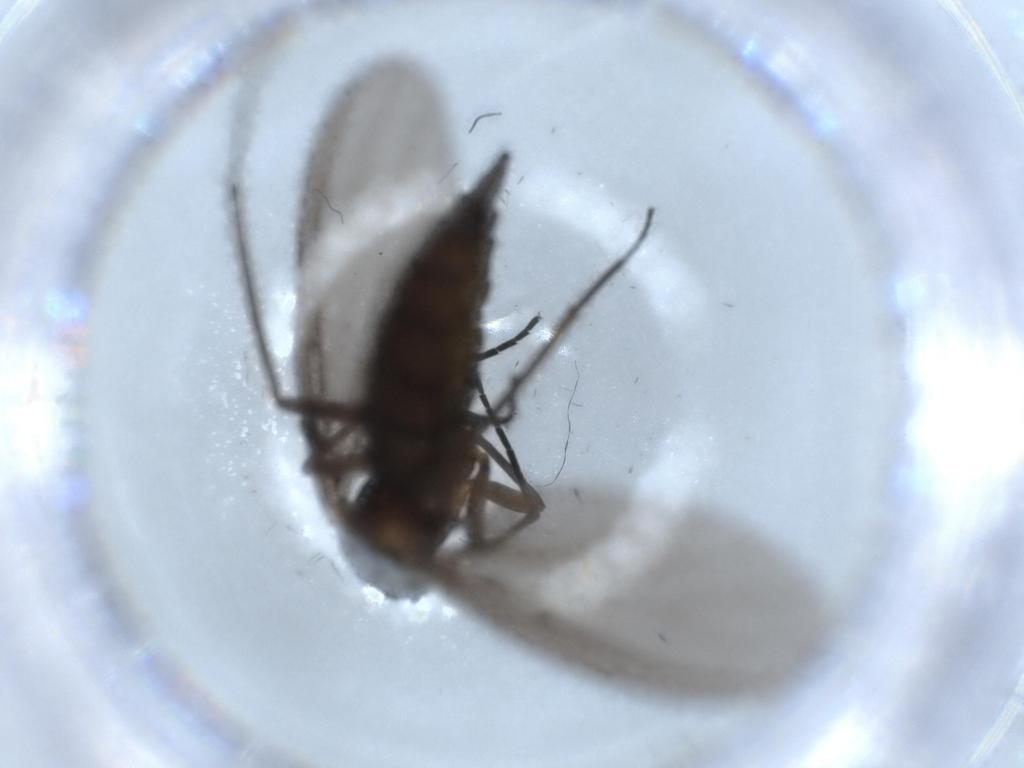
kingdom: Animalia
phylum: Arthropoda
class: Insecta
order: Diptera
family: Sciaridae
